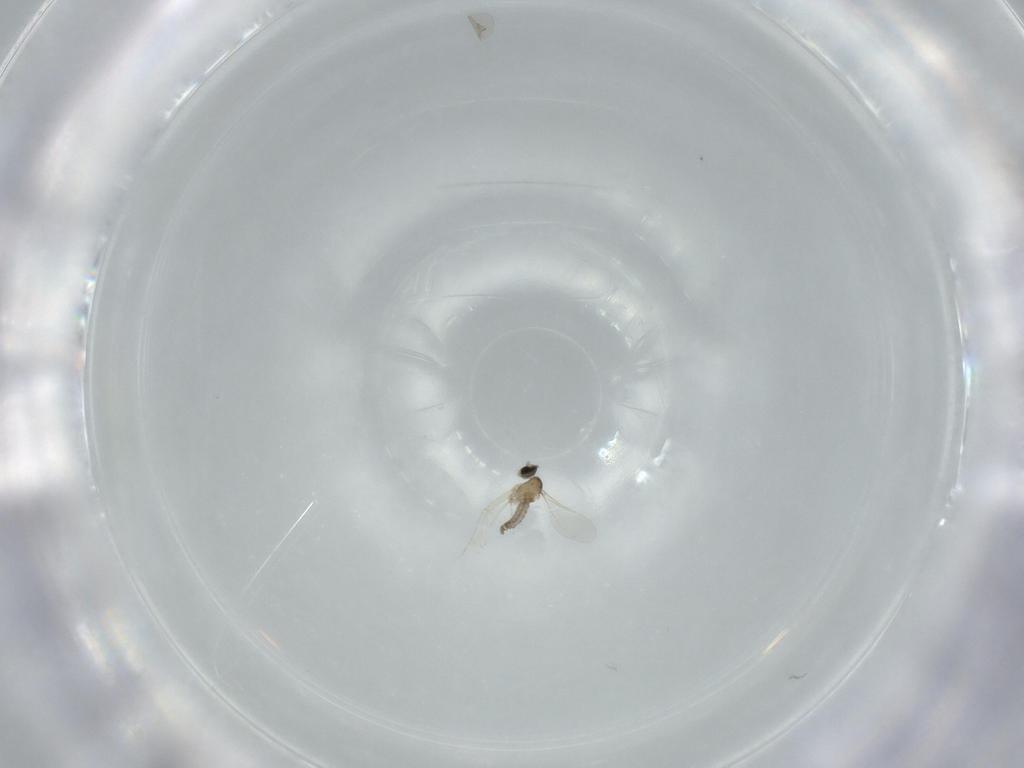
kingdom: Animalia
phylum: Arthropoda
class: Insecta
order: Diptera
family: Cecidomyiidae
